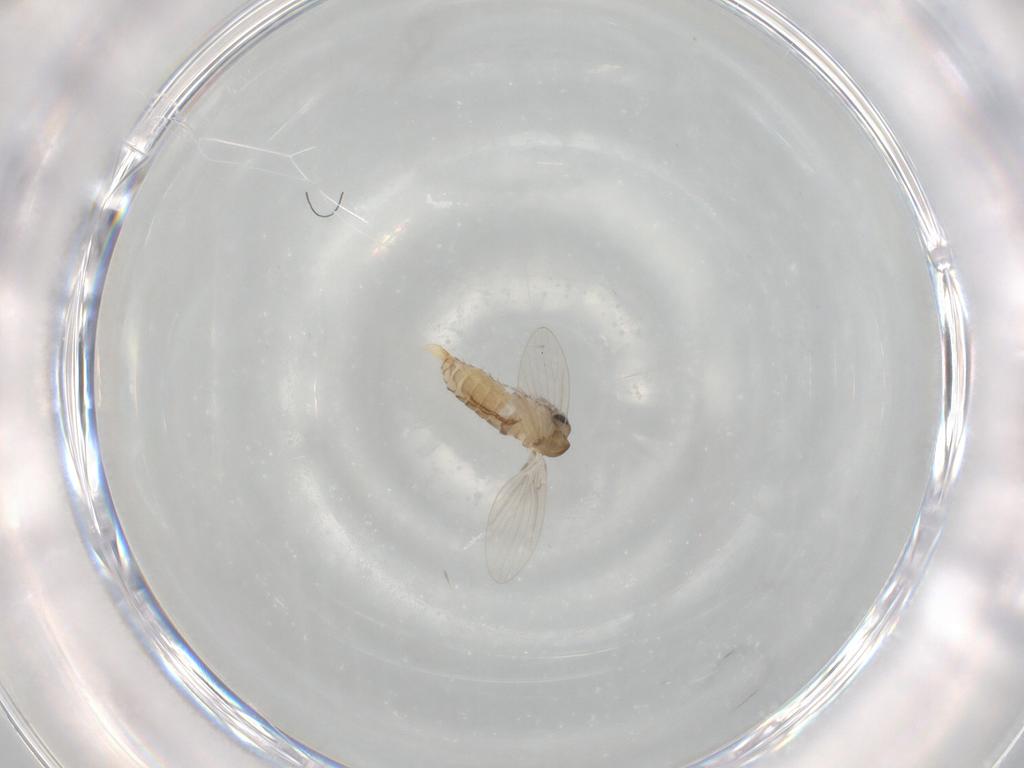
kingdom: Animalia
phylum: Arthropoda
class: Insecta
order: Diptera
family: Psychodidae
